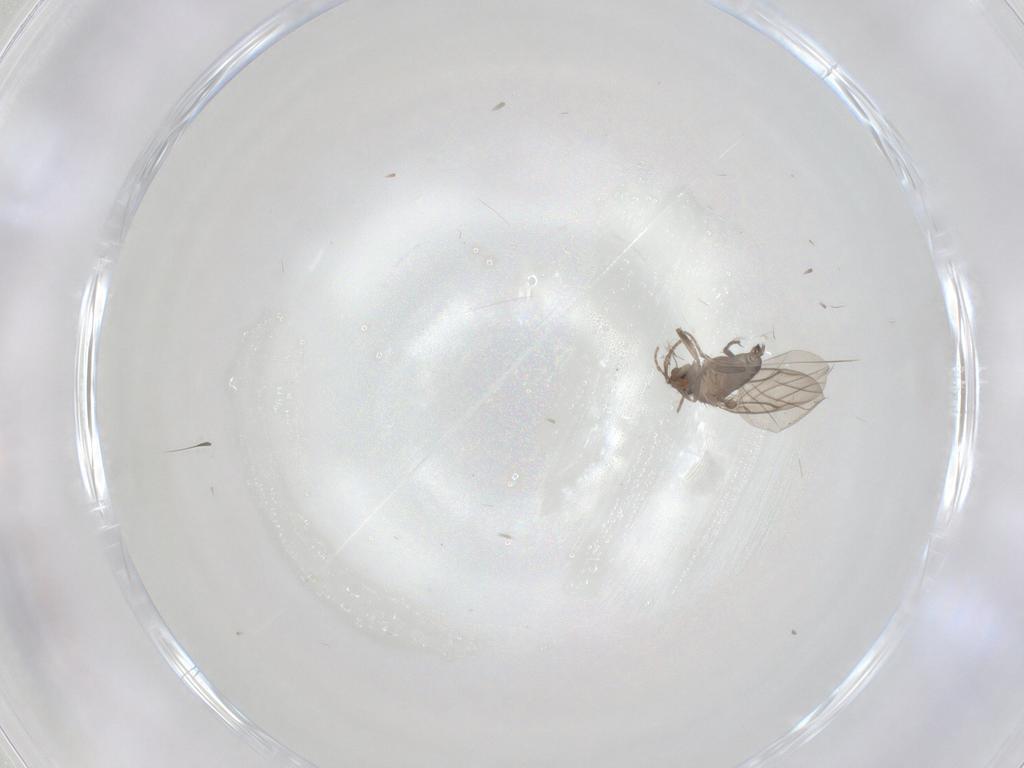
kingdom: Animalia
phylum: Arthropoda
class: Insecta
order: Diptera
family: Phoridae
